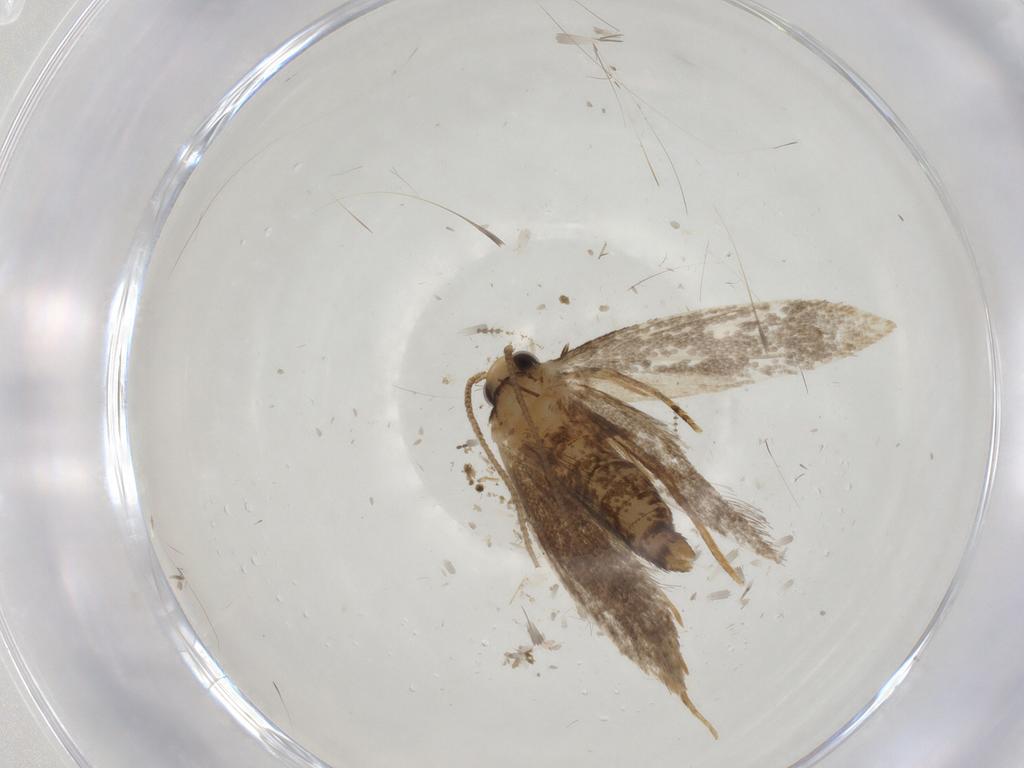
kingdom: Animalia
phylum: Arthropoda
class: Insecta
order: Lepidoptera
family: Tineidae
